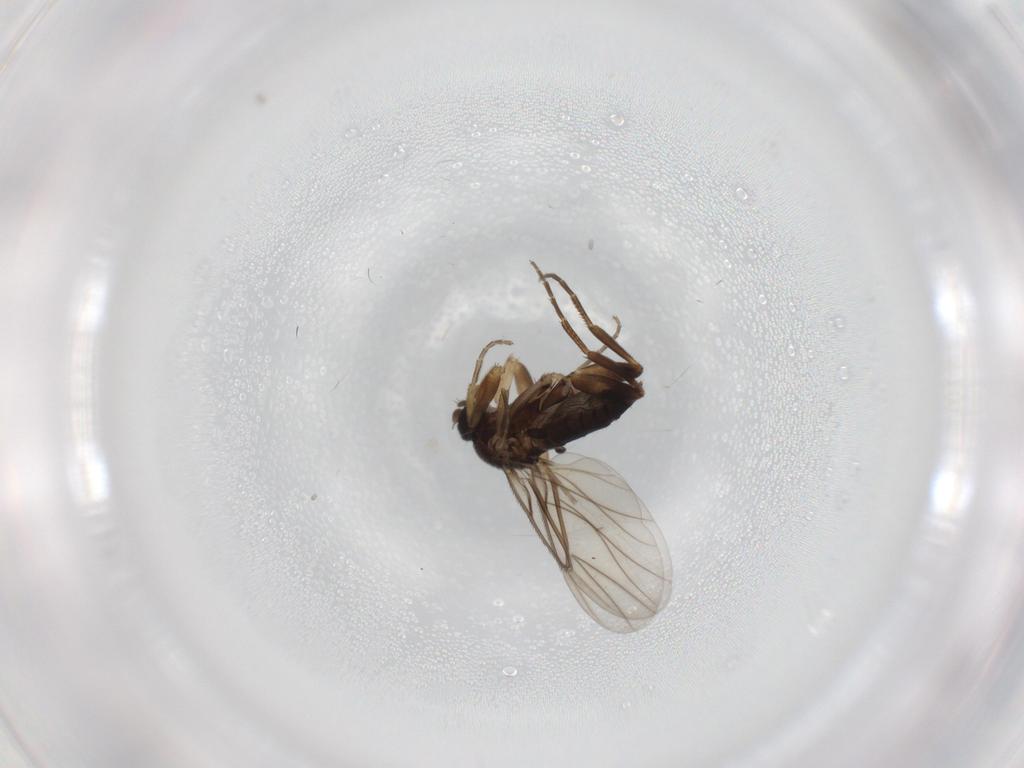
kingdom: Animalia
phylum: Arthropoda
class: Insecta
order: Diptera
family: Phoridae
